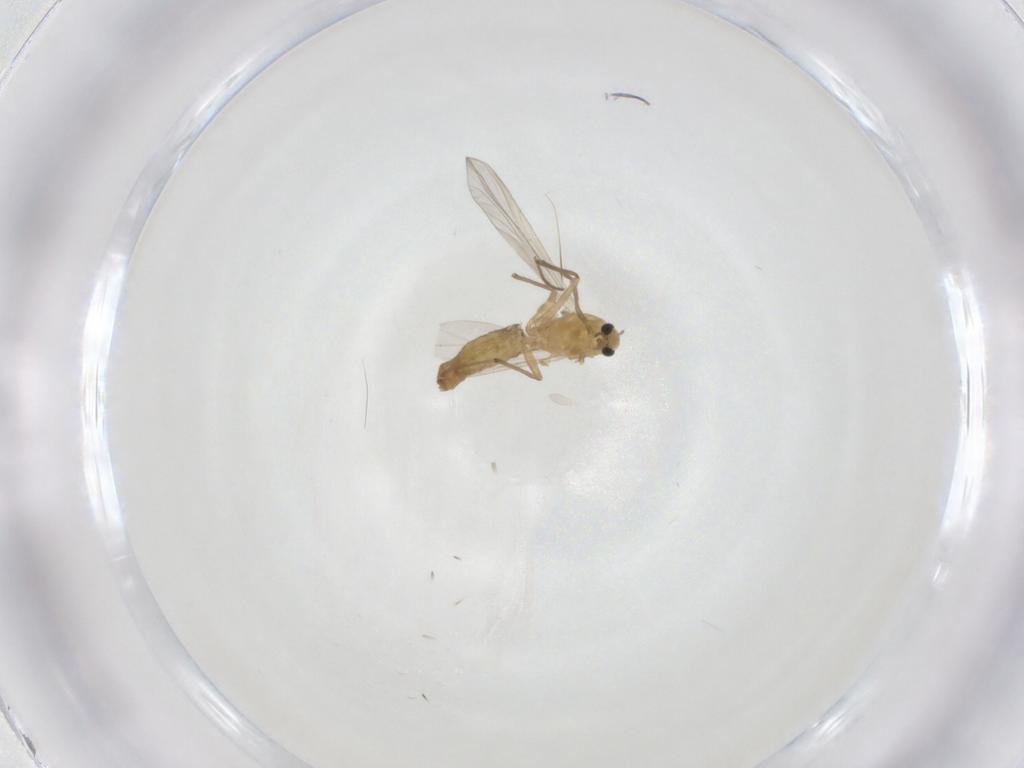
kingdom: Animalia
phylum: Arthropoda
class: Insecta
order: Diptera
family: Chironomidae
